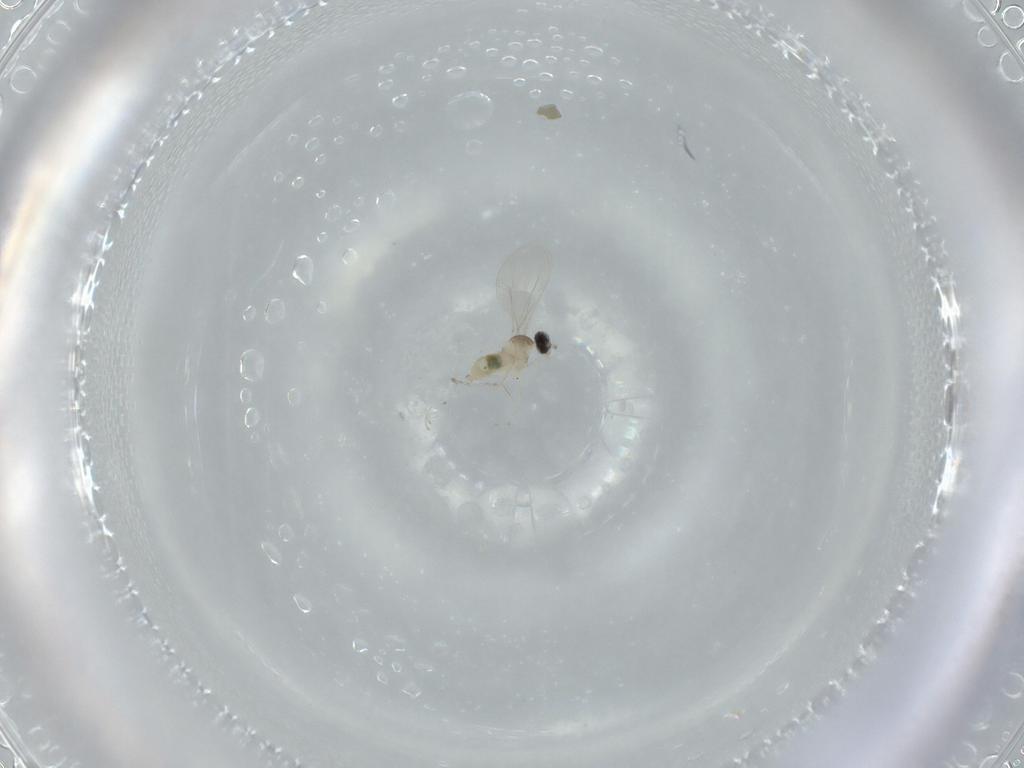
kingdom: Animalia
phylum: Arthropoda
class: Insecta
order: Diptera
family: Cecidomyiidae
